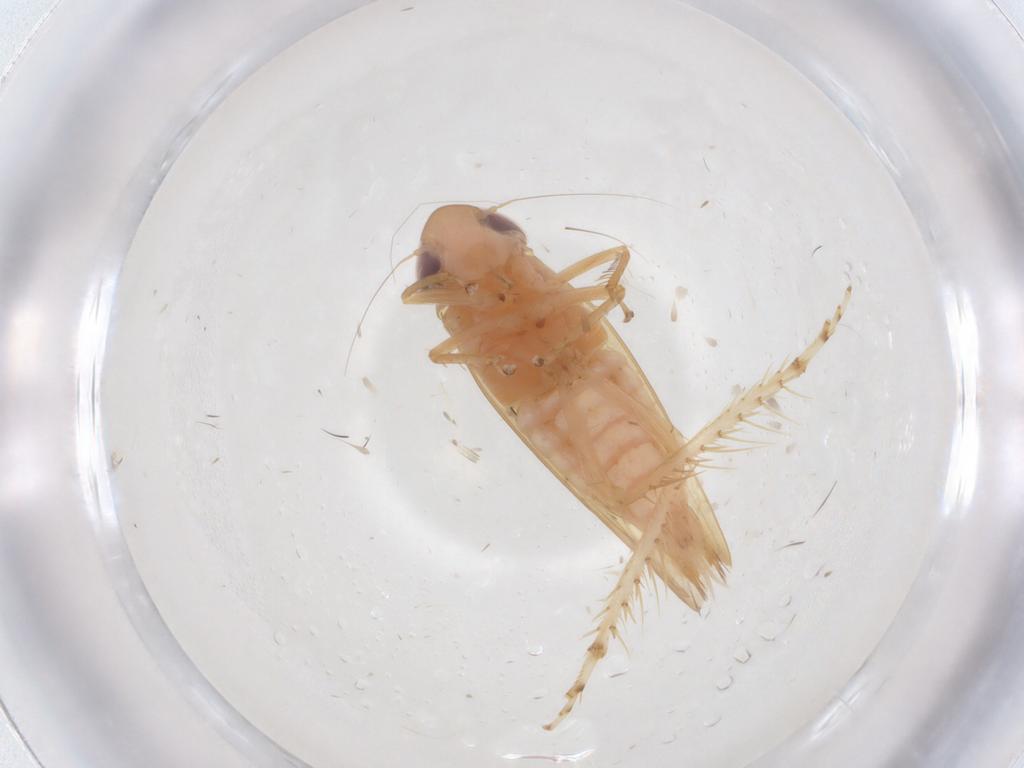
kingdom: Animalia
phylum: Arthropoda
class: Insecta
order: Hemiptera
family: Cicadellidae
